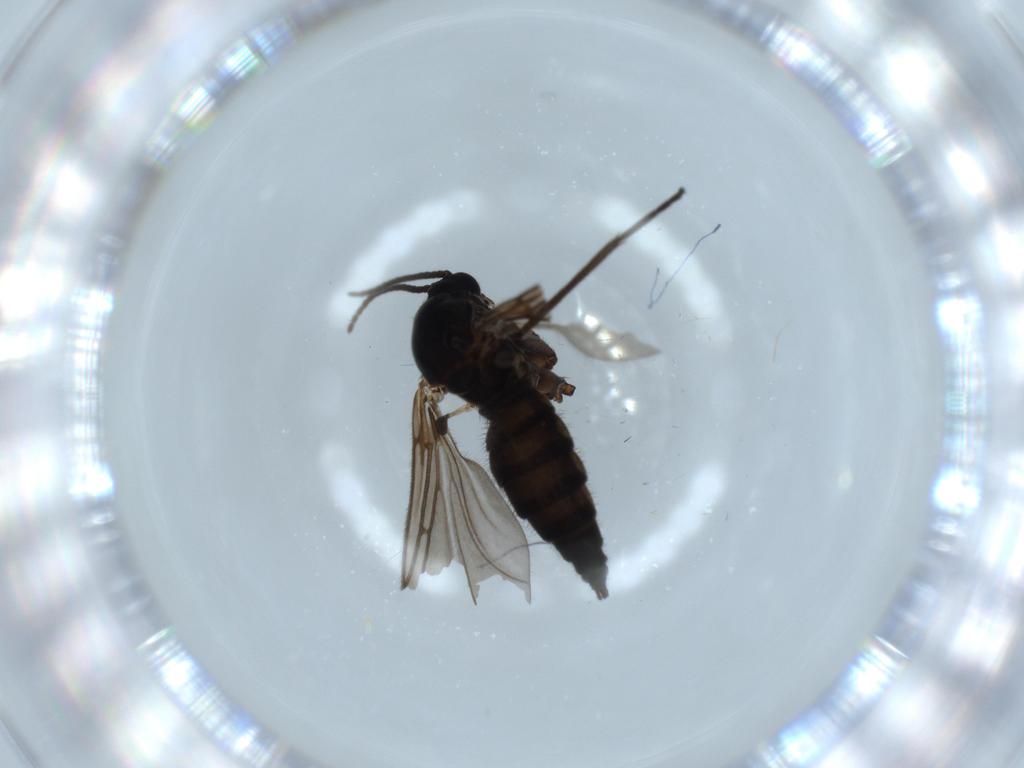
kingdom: Animalia
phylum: Arthropoda
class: Insecta
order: Diptera
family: Sciaridae
